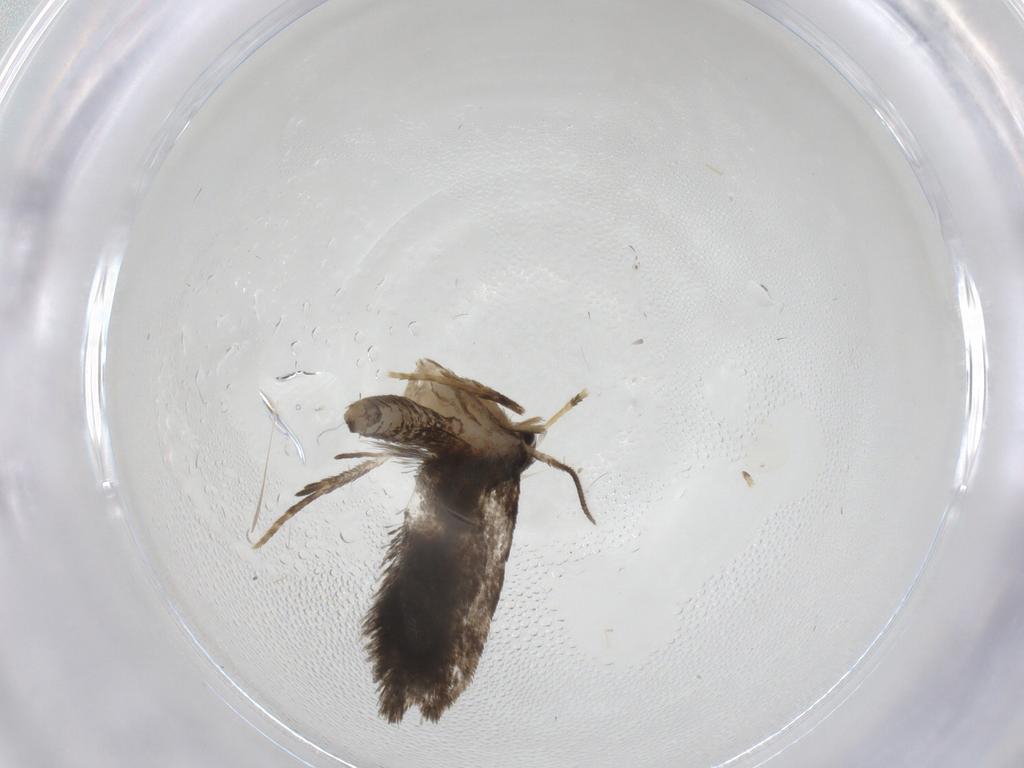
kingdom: Animalia
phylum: Arthropoda
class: Insecta
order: Lepidoptera
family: Psychidae
